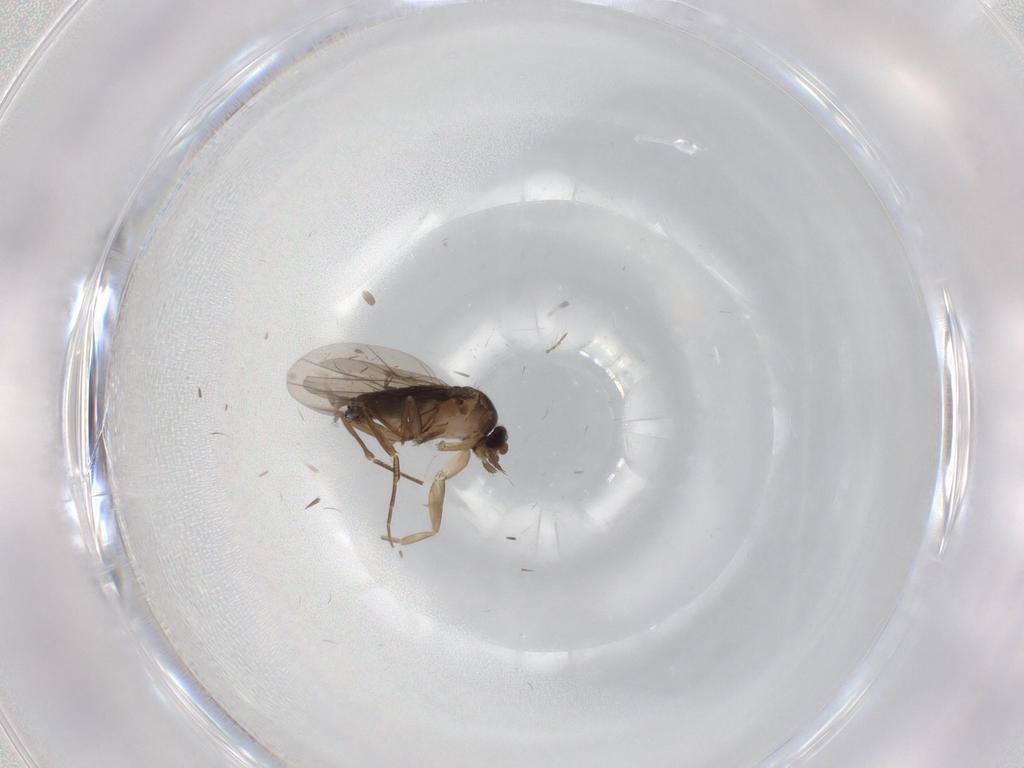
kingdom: Animalia
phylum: Arthropoda
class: Insecta
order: Diptera
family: Phoridae
